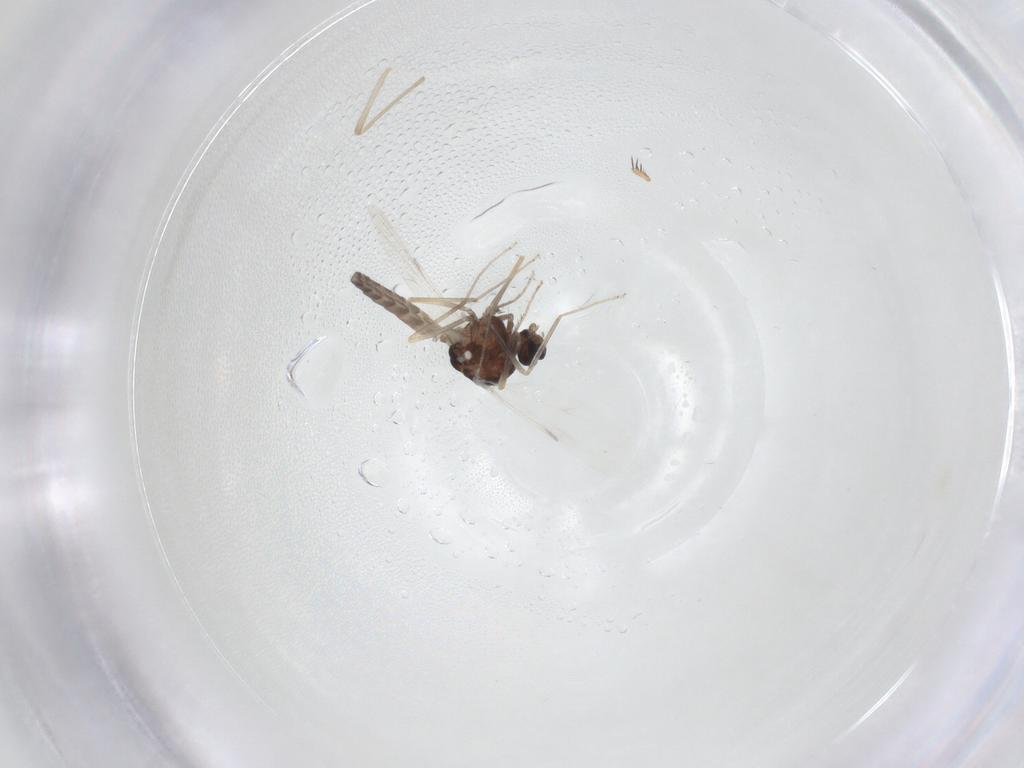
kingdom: Animalia
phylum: Arthropoda
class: Insecta
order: Diptera
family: Ceratopogonidae
